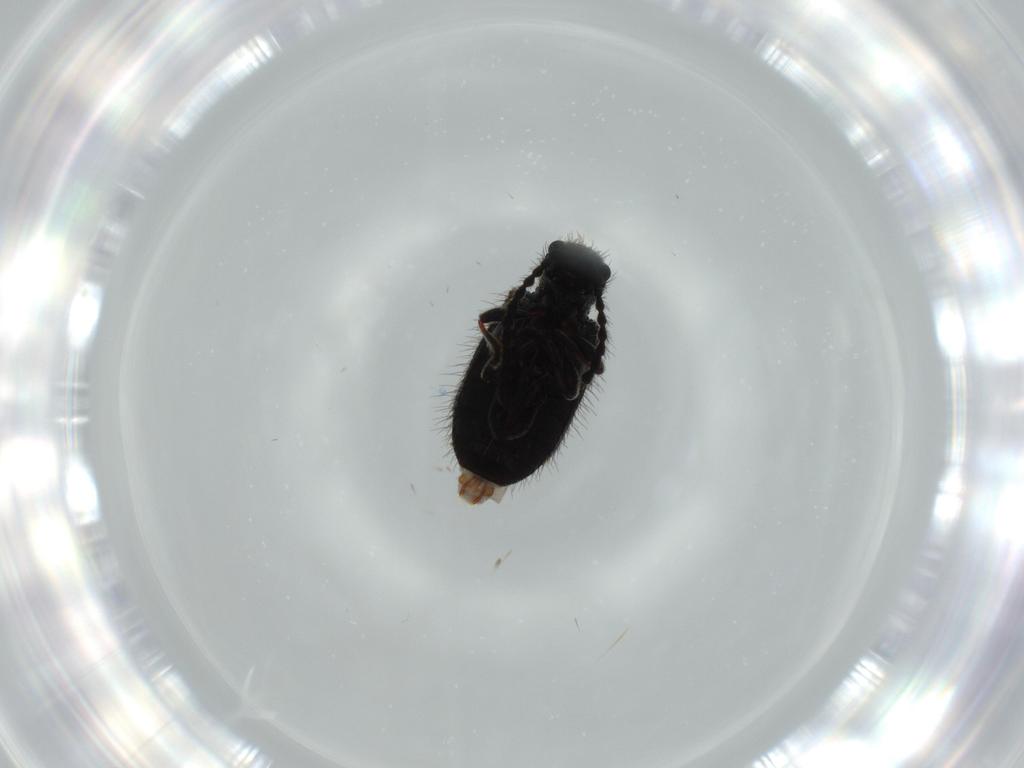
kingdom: Animalia
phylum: Arthropoda
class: Insecta
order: Coleoptera
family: Ptinidae
